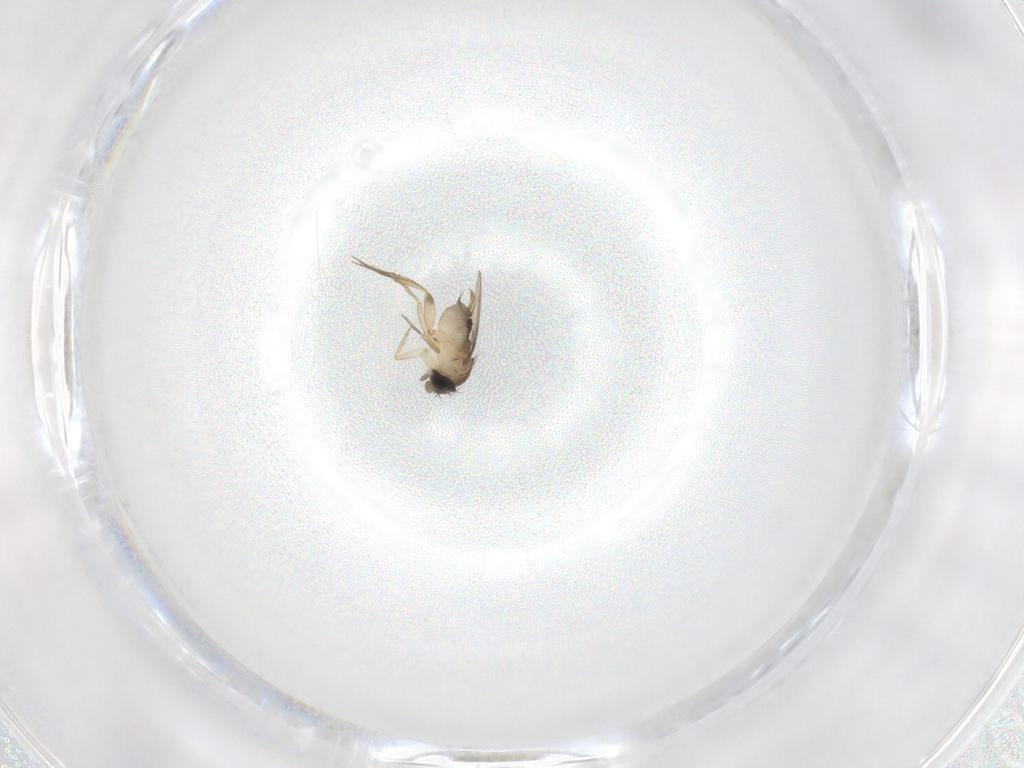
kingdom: Animalia
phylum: Arthropoda
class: Insecta
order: Diptera
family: Phoridae
